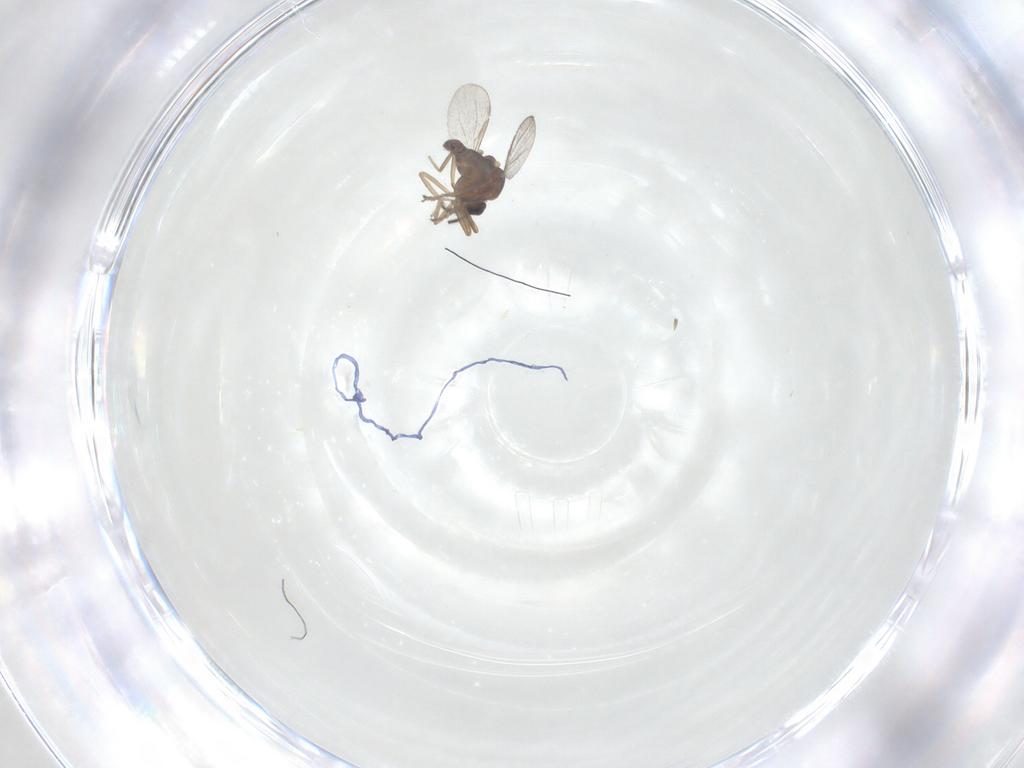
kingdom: Animalia
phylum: Arthropoda
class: Insecta
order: Diptera
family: Ceratopogonidae
